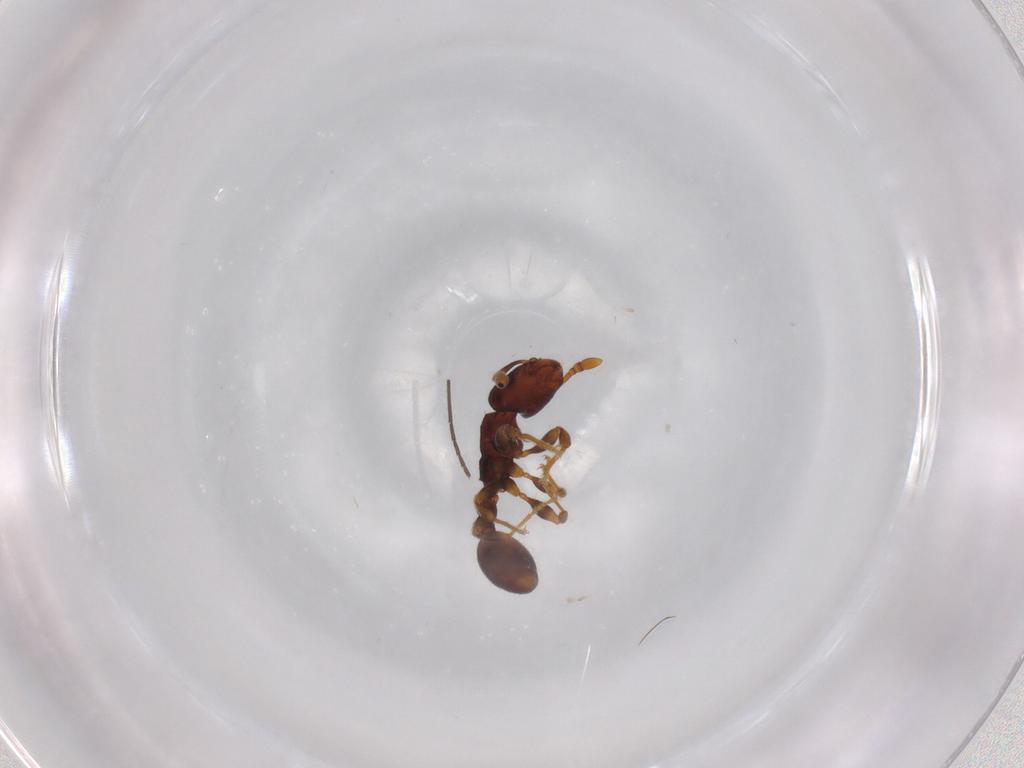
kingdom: Animalia
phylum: Arthropoda
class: Insecta
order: Hymenoptera
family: Formicidae
